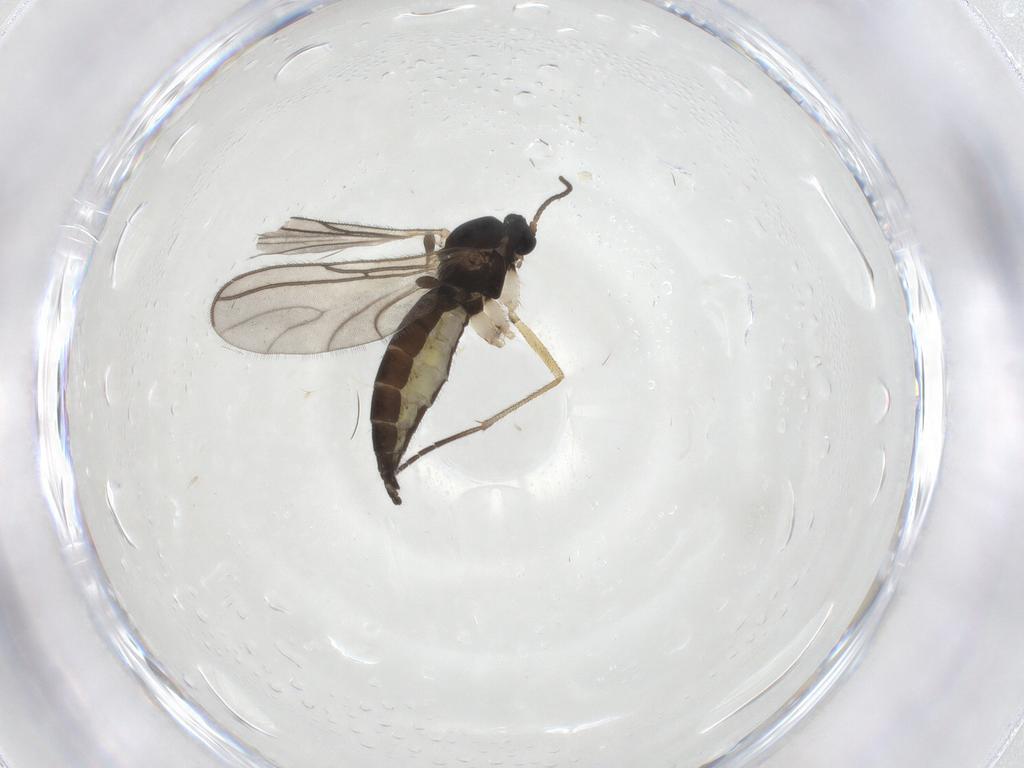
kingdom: Animalia
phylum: Arthropoda
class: Insecta
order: Diptera
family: Sciaridae
